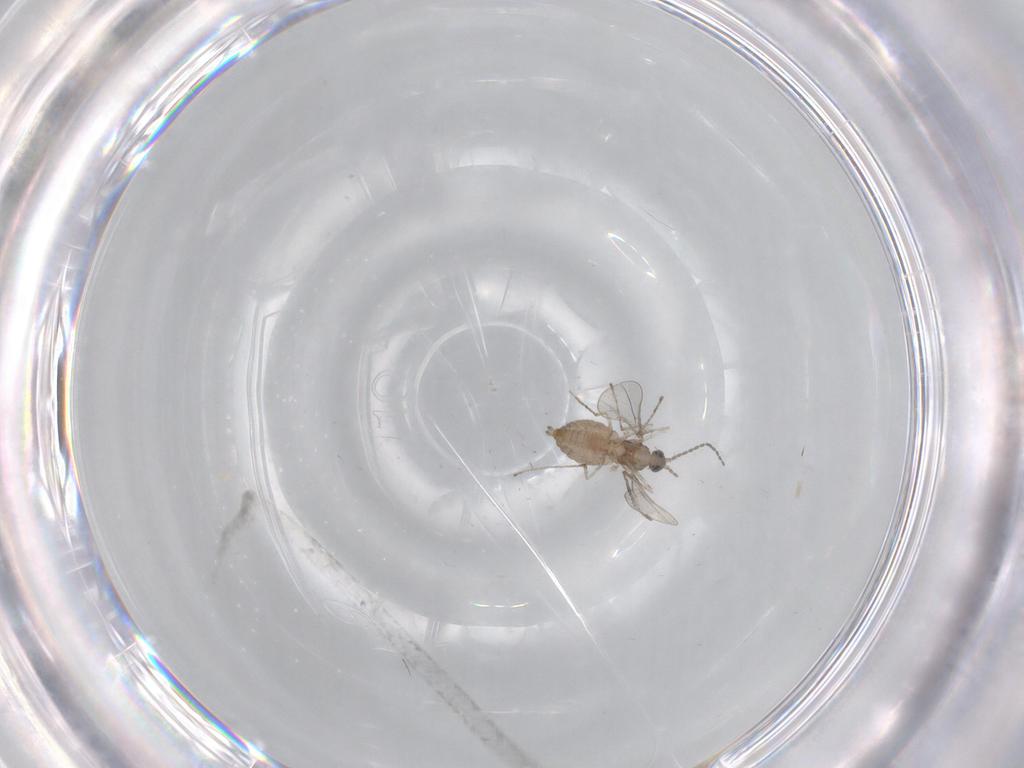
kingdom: Animalia
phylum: Arthropoda
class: Insecta
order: Diptera
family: Cecidomyiidae
